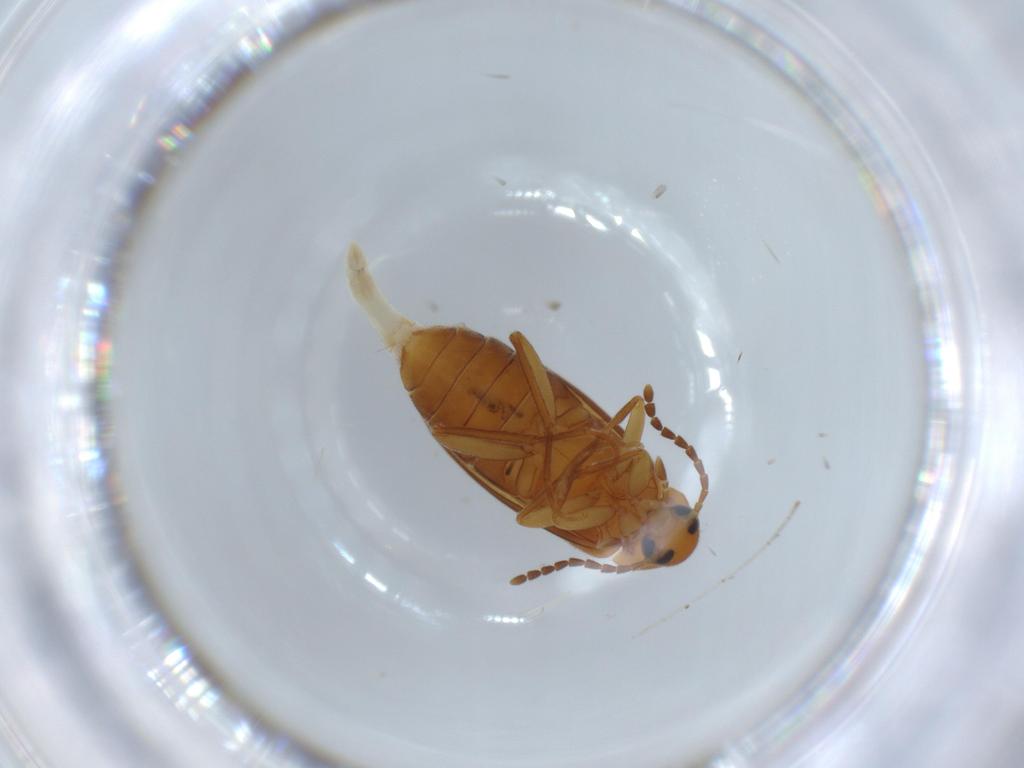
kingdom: Animalia
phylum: Arthropoda
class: Insecta
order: Coleoptera
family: Scraptiidae
